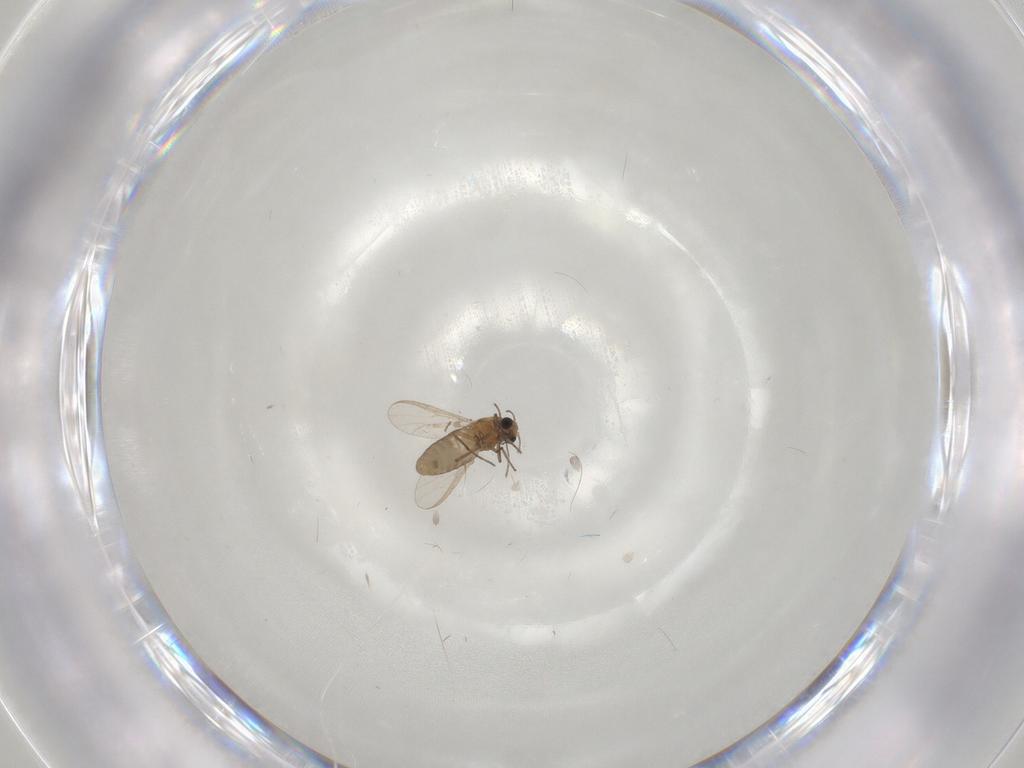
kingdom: Animalia
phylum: Arthropoda
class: Insecta
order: Diptera
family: Chironomidae
